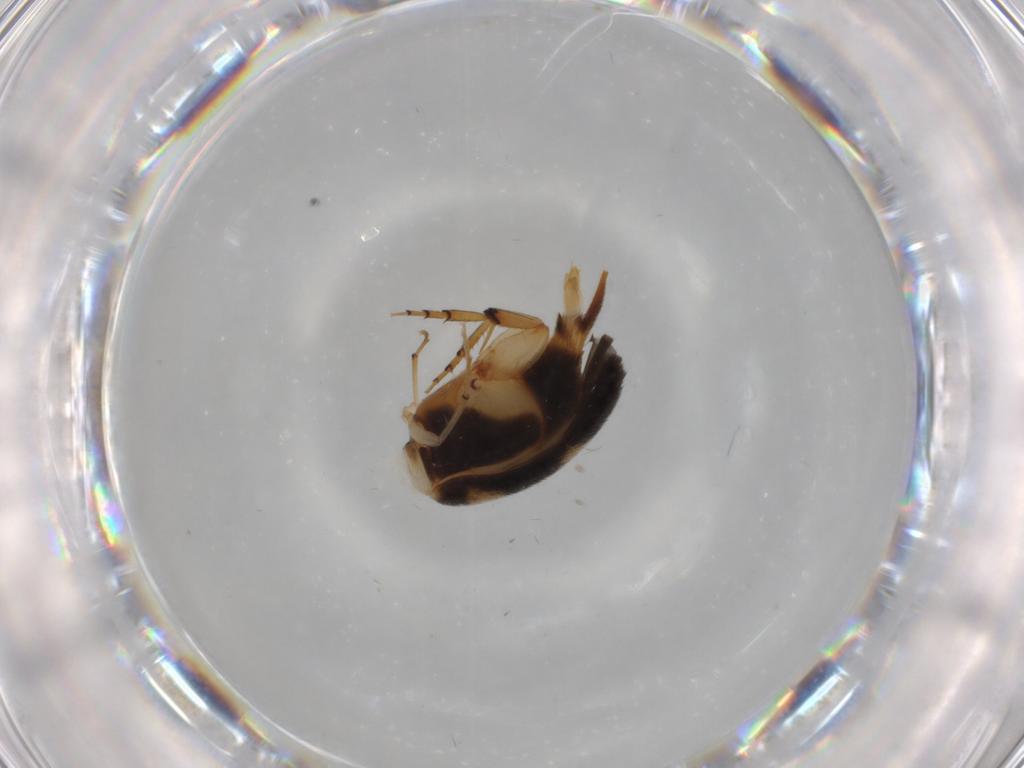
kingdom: Animalia
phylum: Arthropoda
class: Insecta
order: Coleoptera
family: Mordellidae
